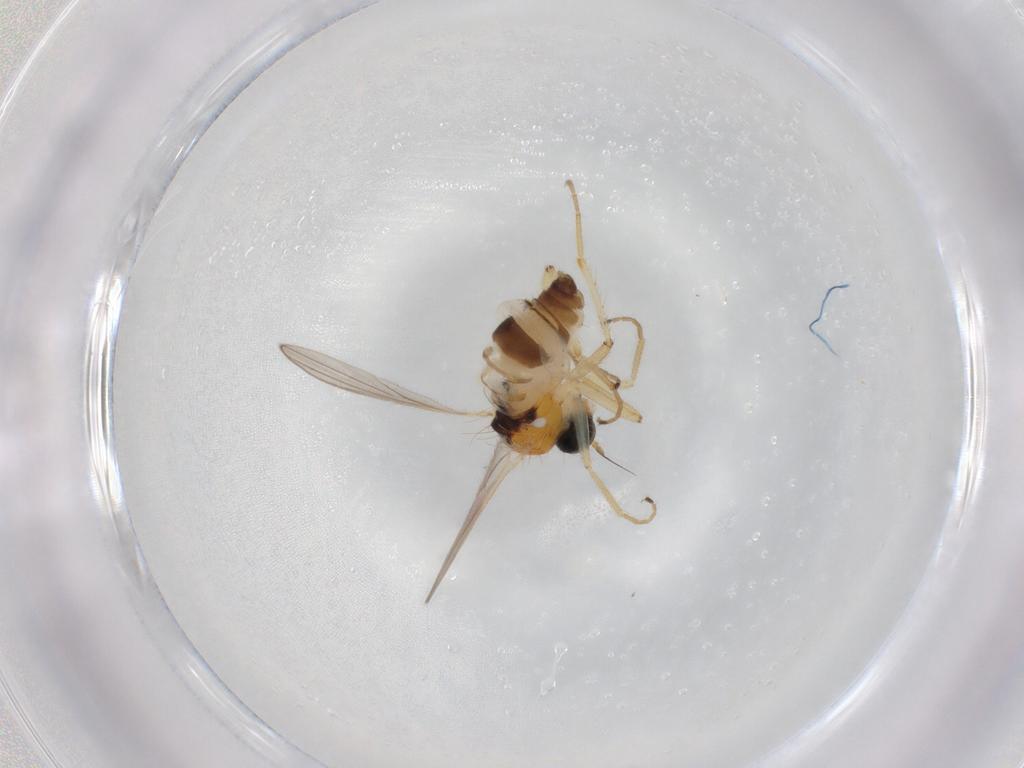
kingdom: Animalia
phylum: Arthropoda
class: Insecta
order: Diptera
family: Hybotidae
